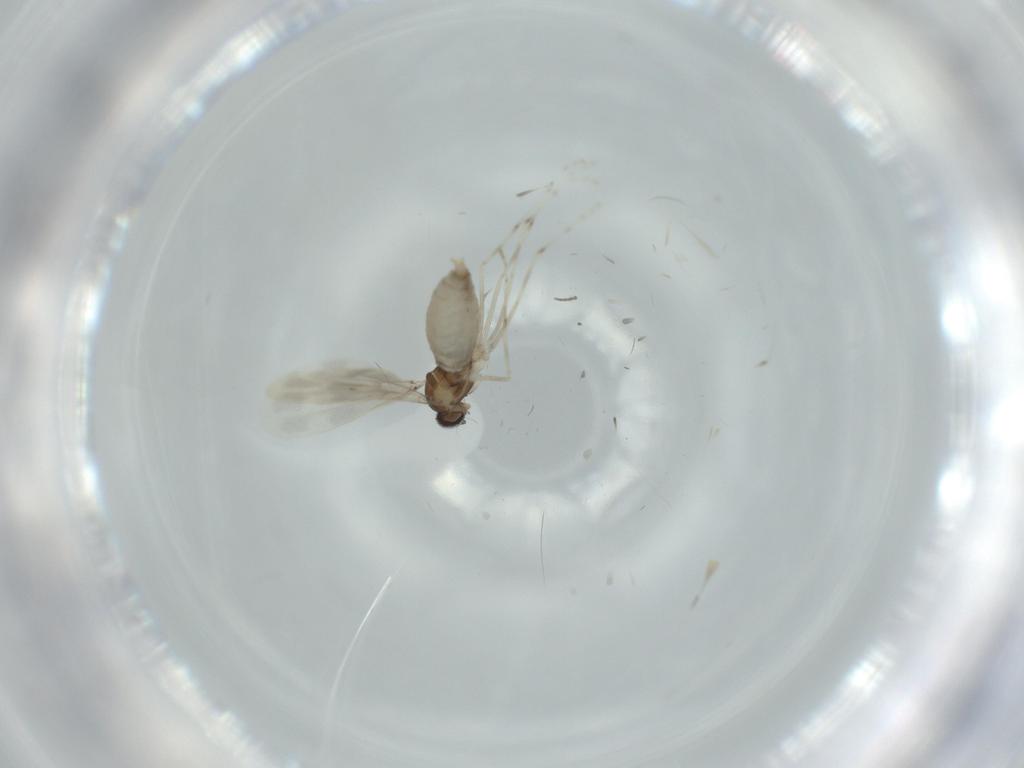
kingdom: Animalia
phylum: Arthropoda
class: Insecta
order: Diptera
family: Cecidomyiidae
